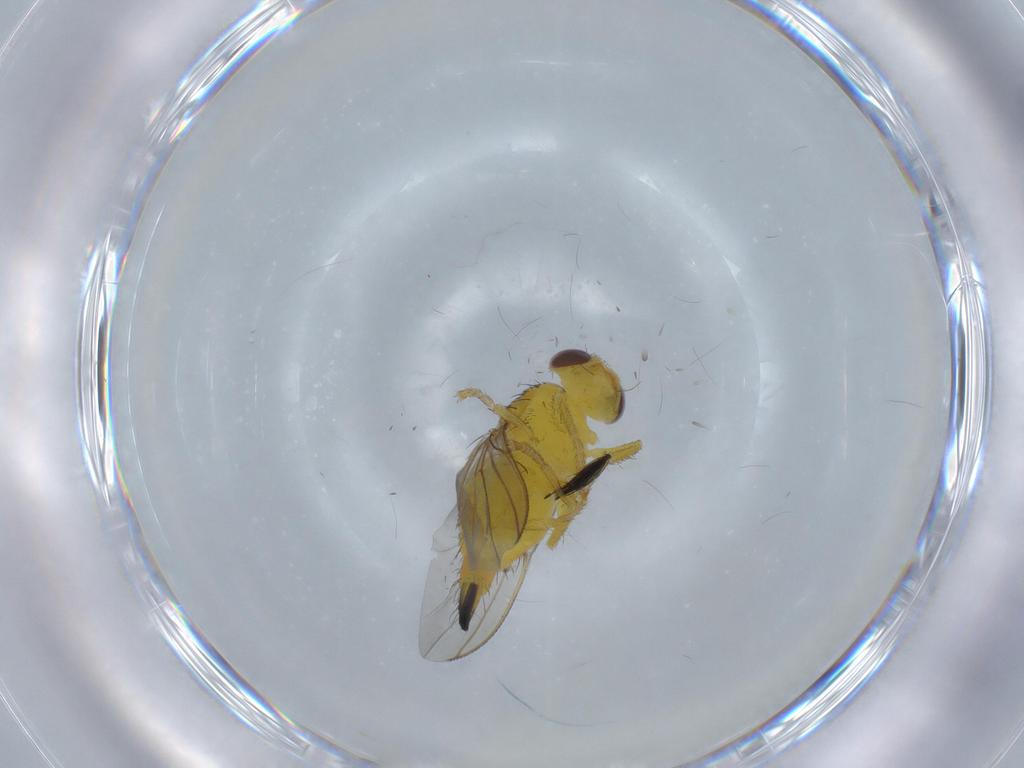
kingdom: Animalia
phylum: Arthropoda
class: Insecta
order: Diptera
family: Fergusoninidae
